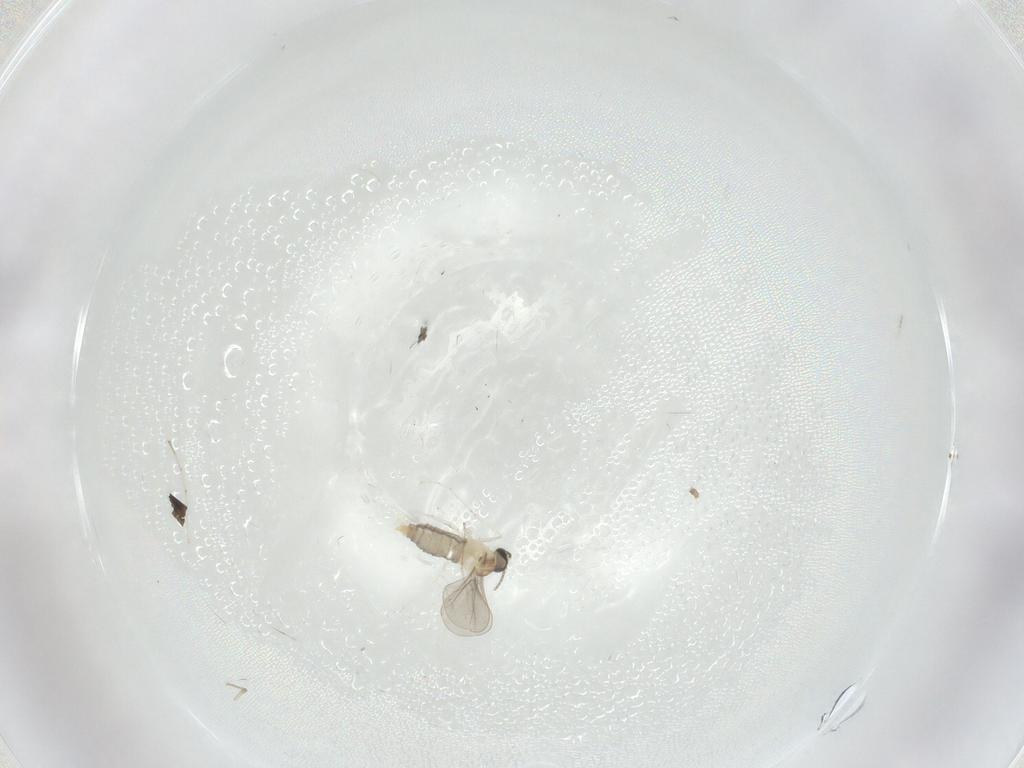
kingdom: Animalia
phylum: Arthropoda
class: Insecta
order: Diptera
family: Psychodidae
